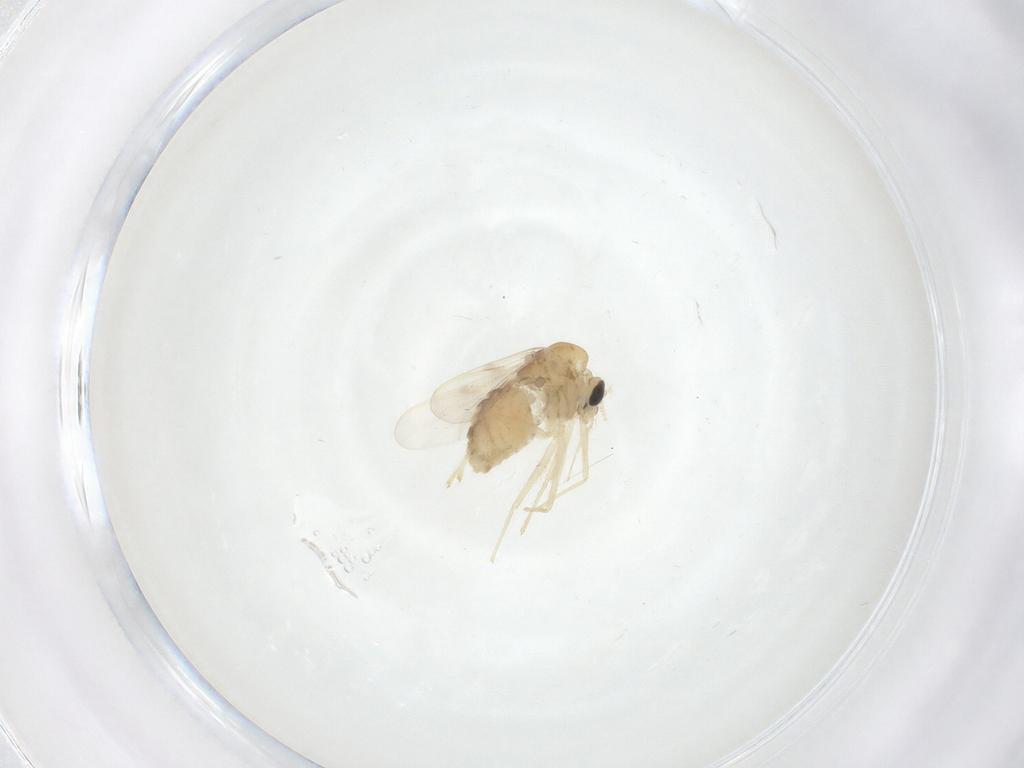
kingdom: Animalia
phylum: Arthropoda
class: Insecta
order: Diptera
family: Chironomidae
